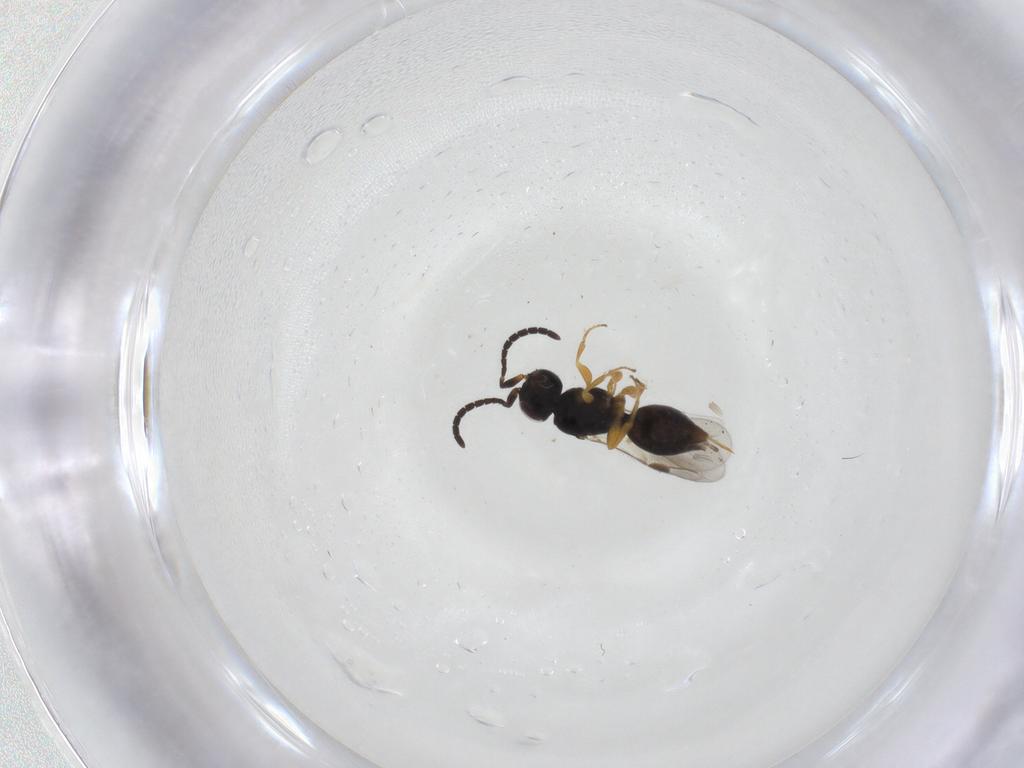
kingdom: Animalia
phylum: Arthropoda
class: Insecta
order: Hymenoptera
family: Megaspilidae
